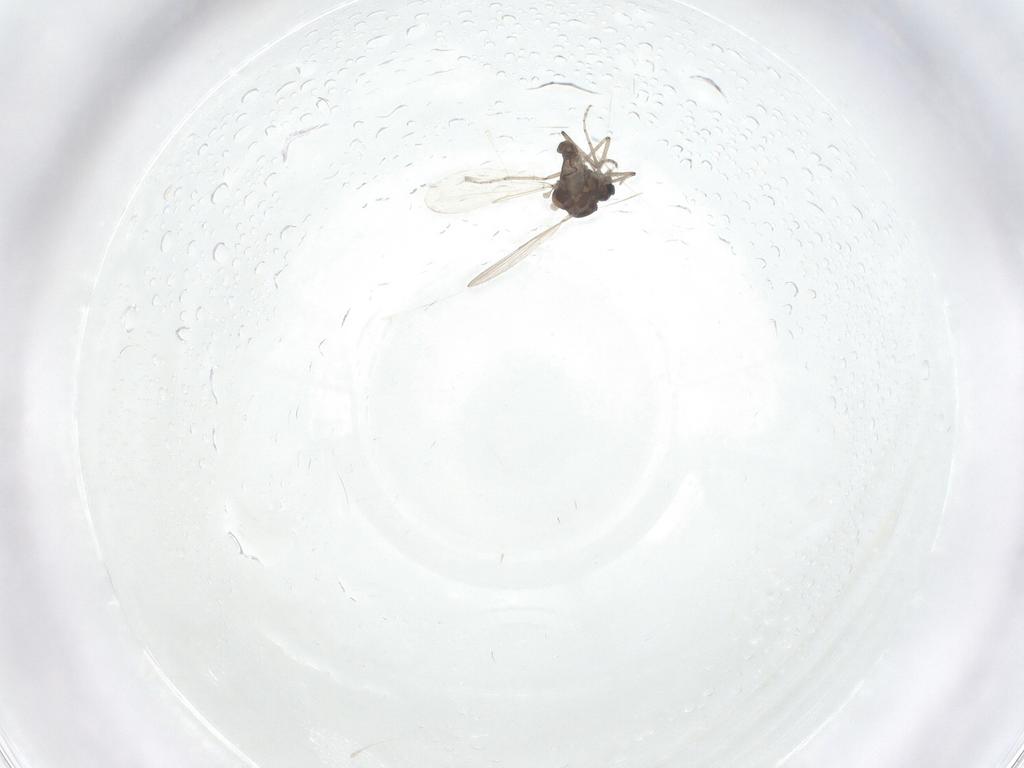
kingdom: Animalia
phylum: Arthropoda
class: Insecta
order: Diptera
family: Ceratopogonidae
